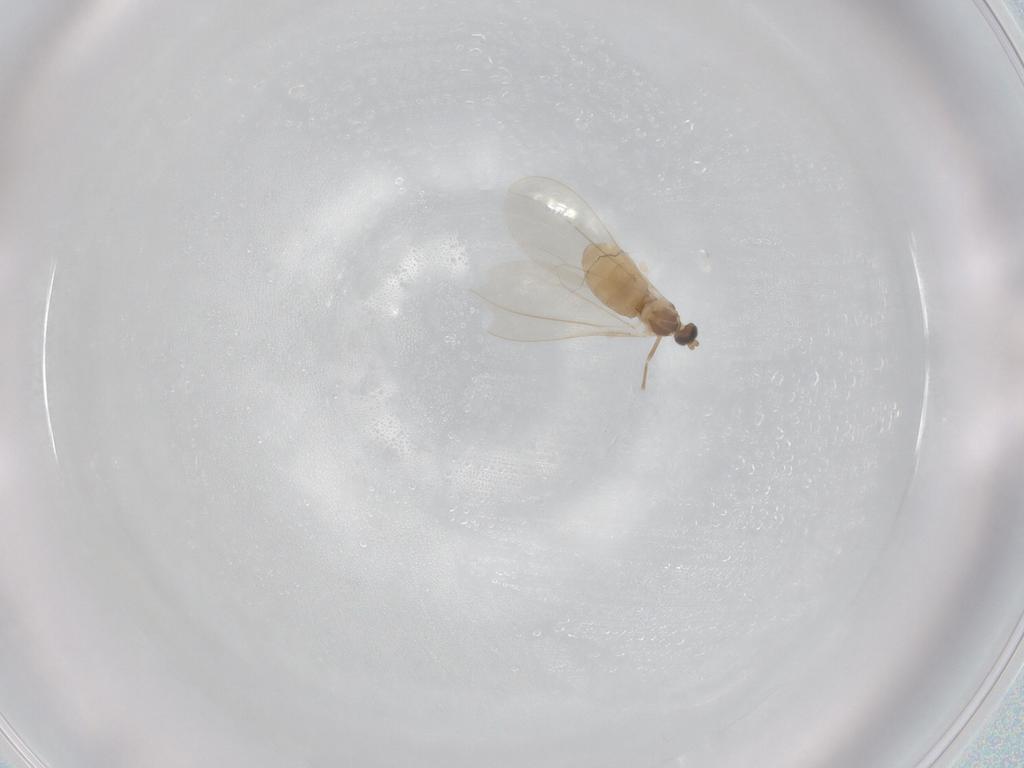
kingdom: Animalia
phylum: Arthropoda
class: Insecta
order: Diptera
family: Cecidomyiidae
